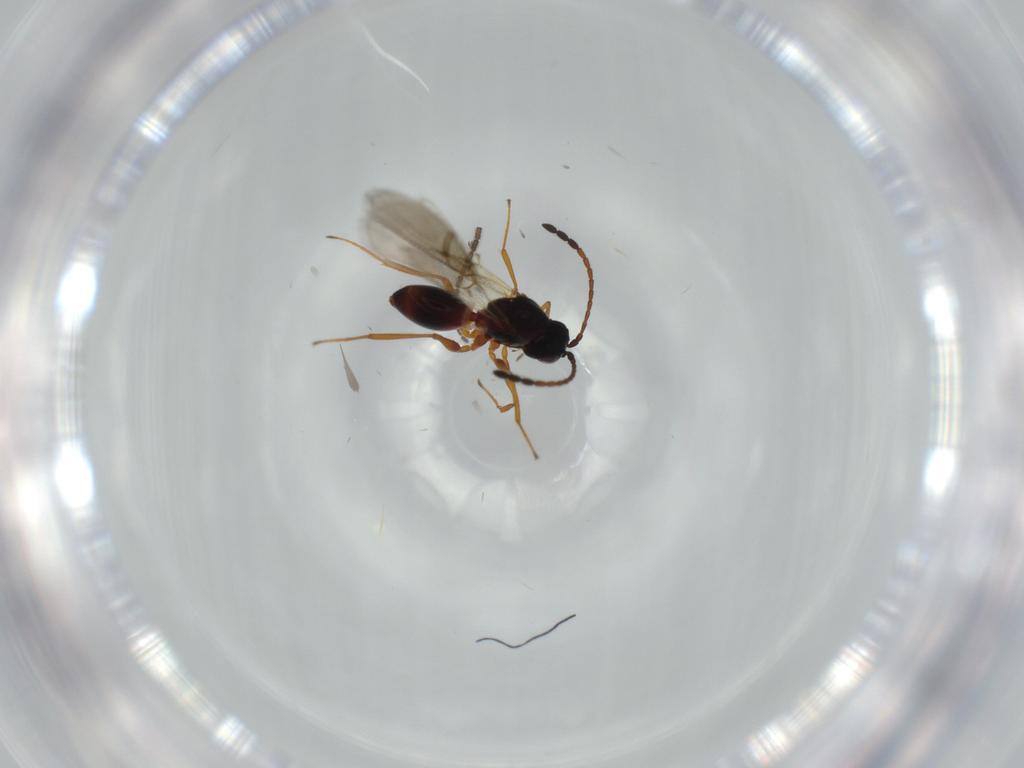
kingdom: Animalia
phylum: Arthropoda
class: Insecta
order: Hymenoptera
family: Figitidae
